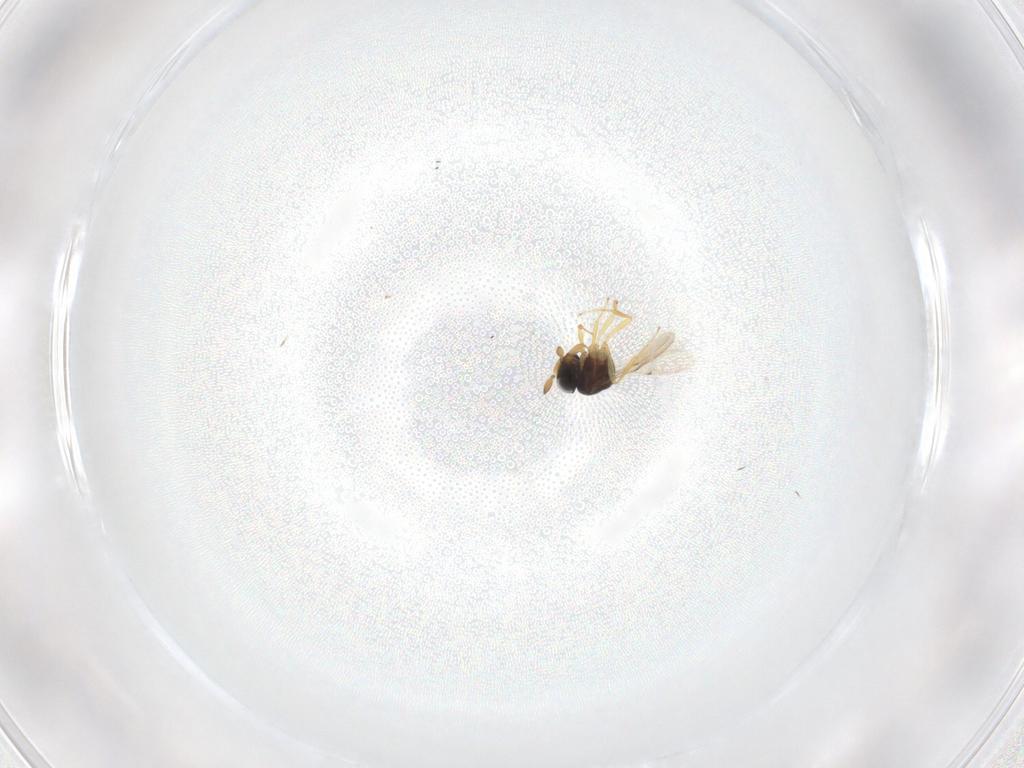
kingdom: Animalia
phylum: Arthropoda
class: Insecta
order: Hymenoptera
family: Scelionidae
